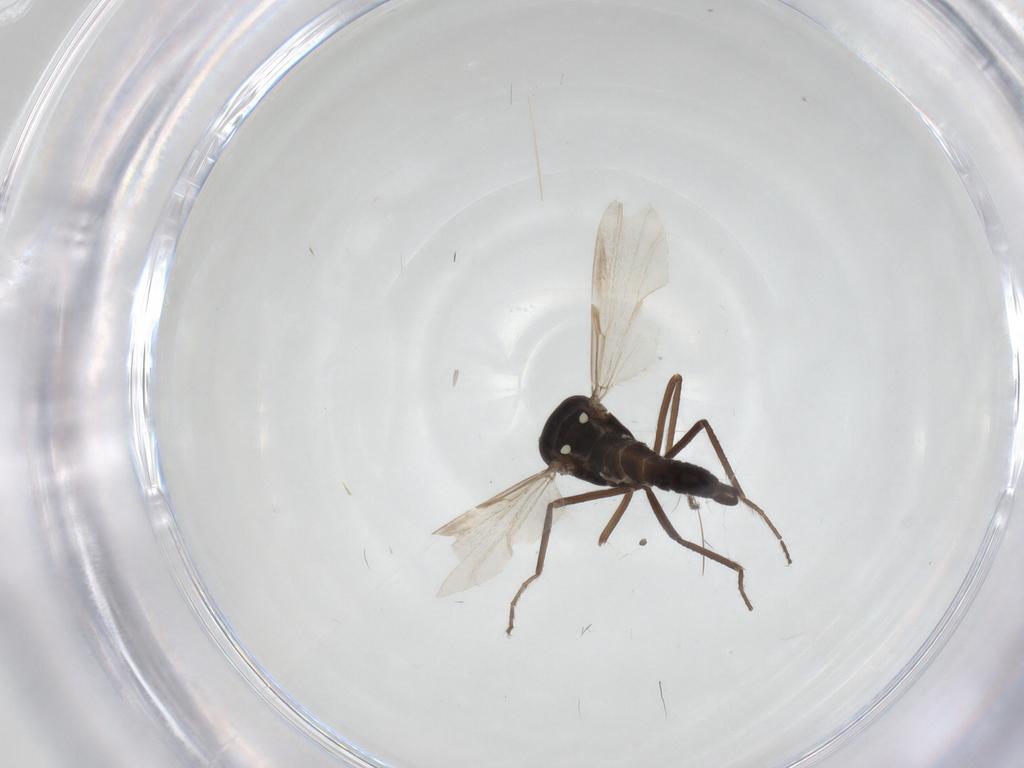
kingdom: Animalia
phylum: Arthropoda
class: Insecta
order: Diptera
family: Ceratopogonidae
